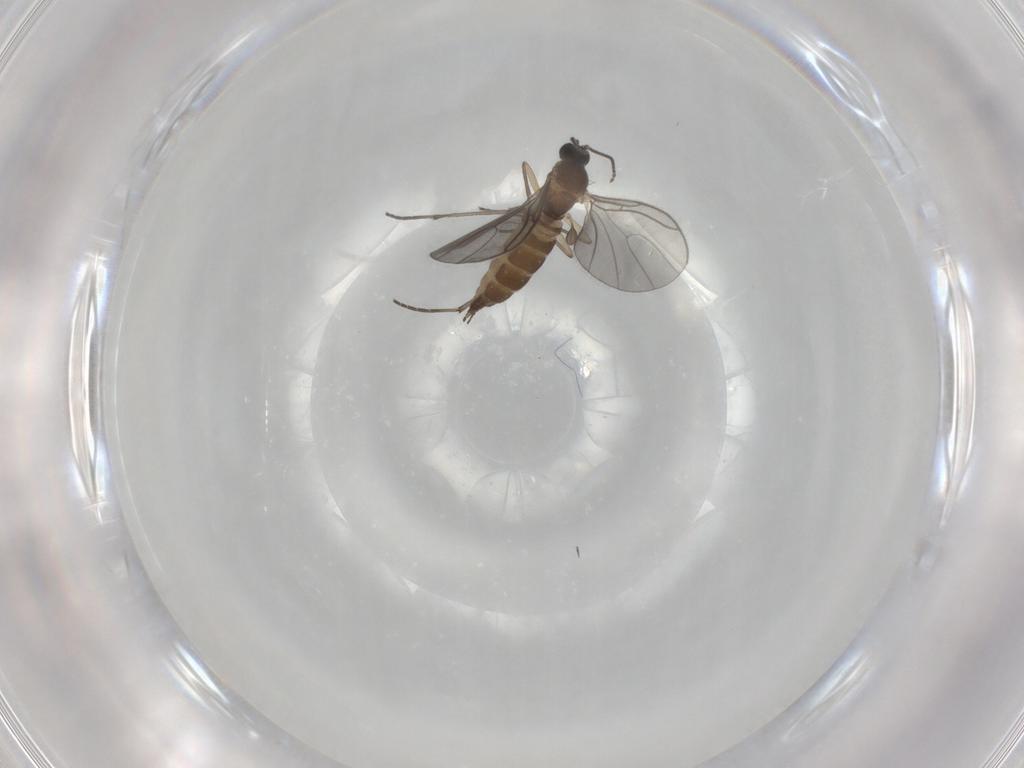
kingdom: Animalia
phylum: Arthropoda
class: Insecta
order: Diptera
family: Sciaridae
